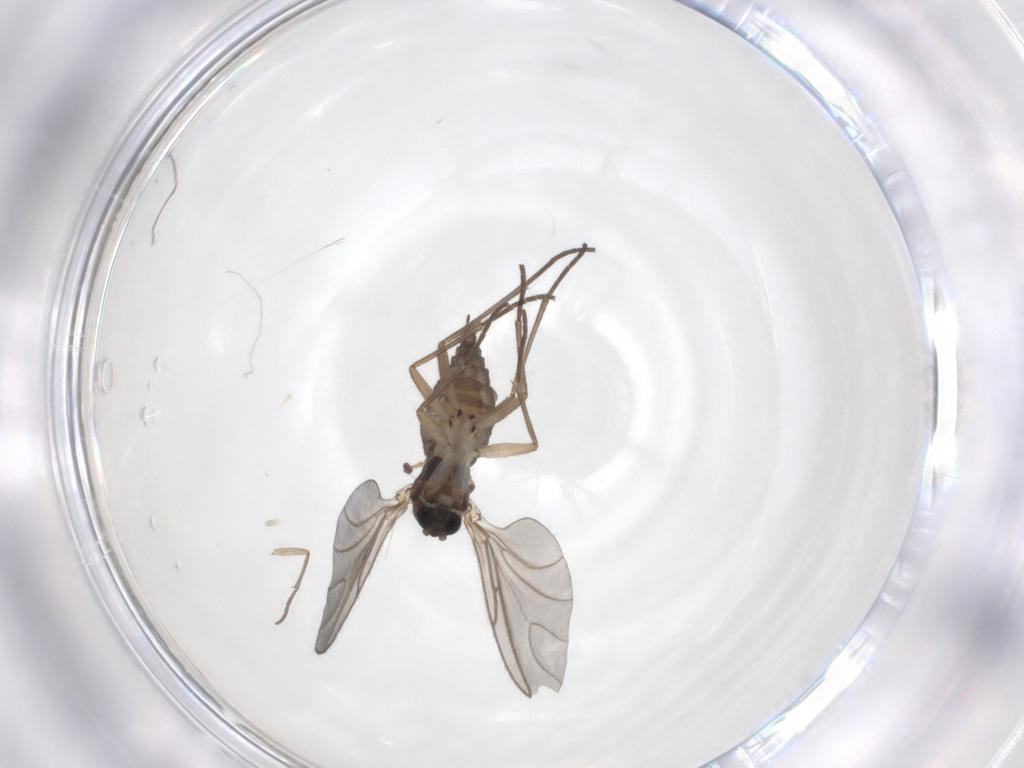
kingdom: Animalia
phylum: Arthropoda
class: Insecta
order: Diptera
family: Sciaridae
